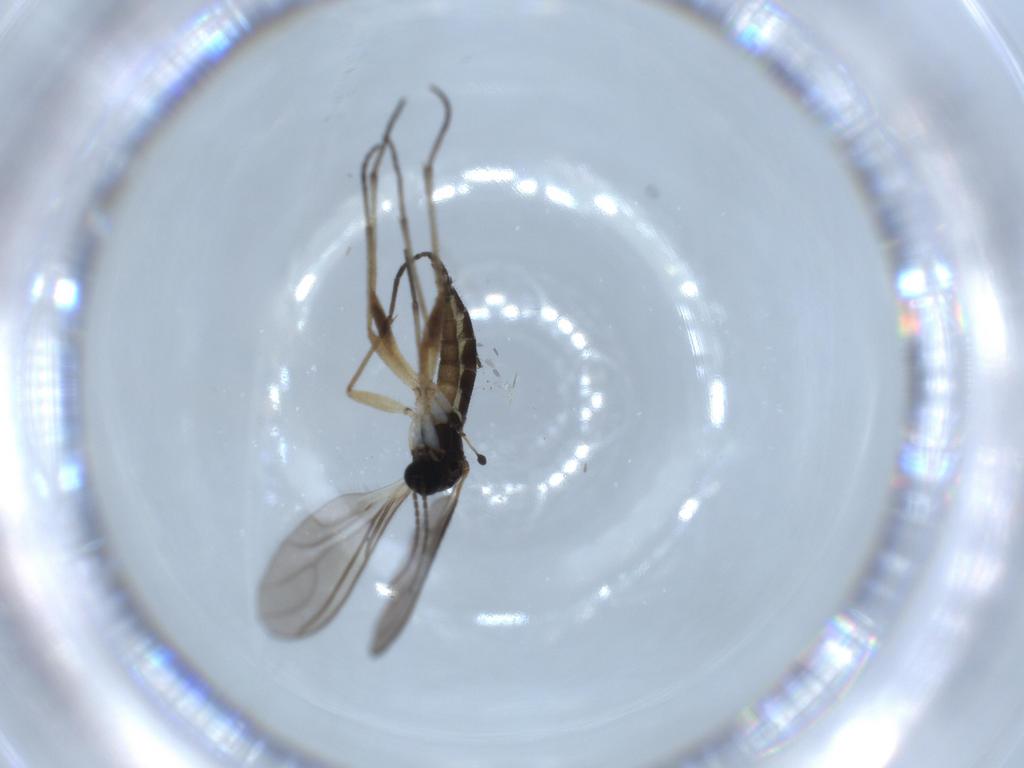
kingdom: Animalia
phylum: Arthropoda
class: Insecta
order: Diptera
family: Sciaridae
